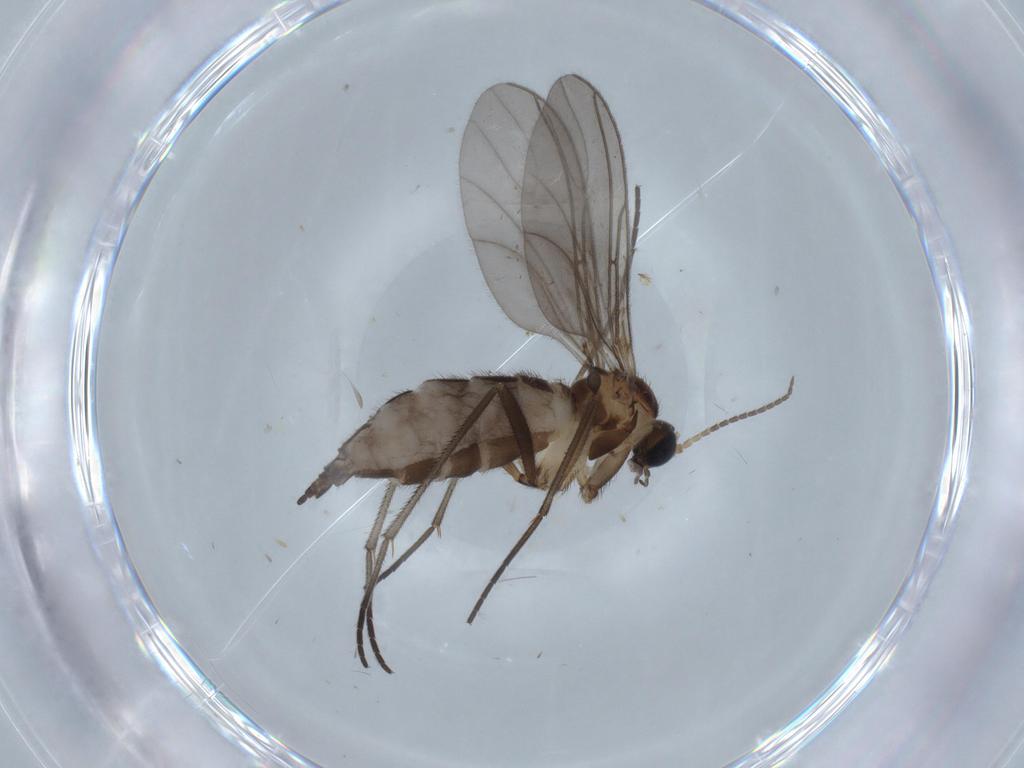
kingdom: Animalia
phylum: Arthropoda
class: Insecta
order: Diptera
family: Sciaridae
